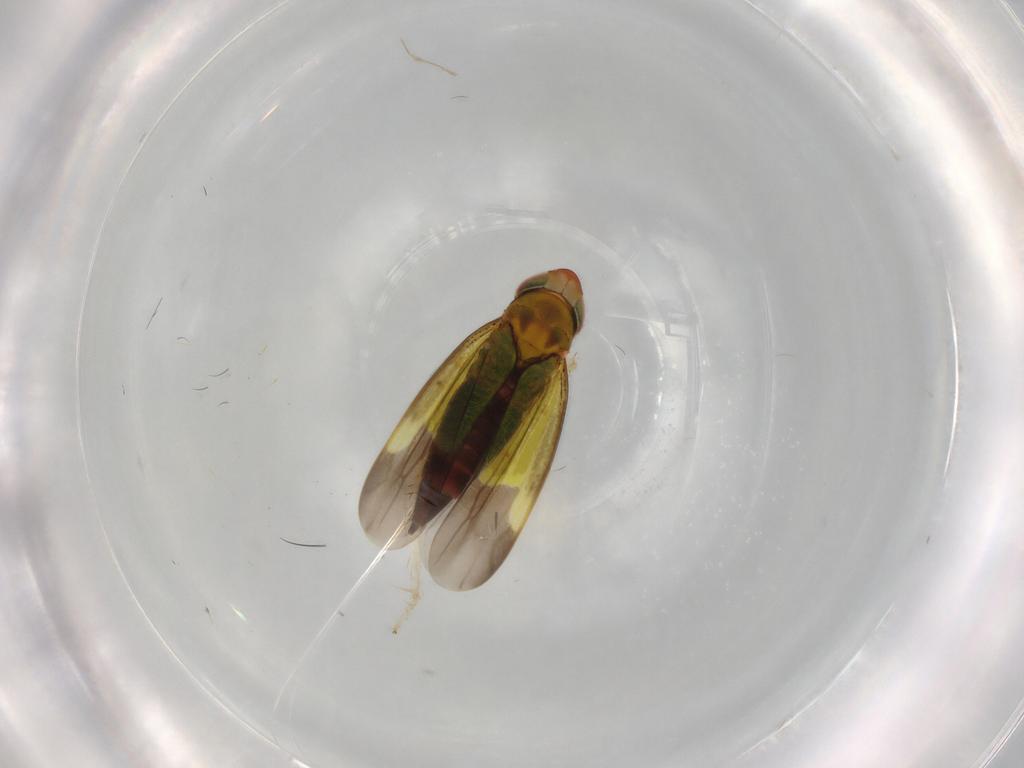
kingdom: Animalia
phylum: Arthropoda
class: Insecta
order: Hemiptera
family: Cicadellidae
